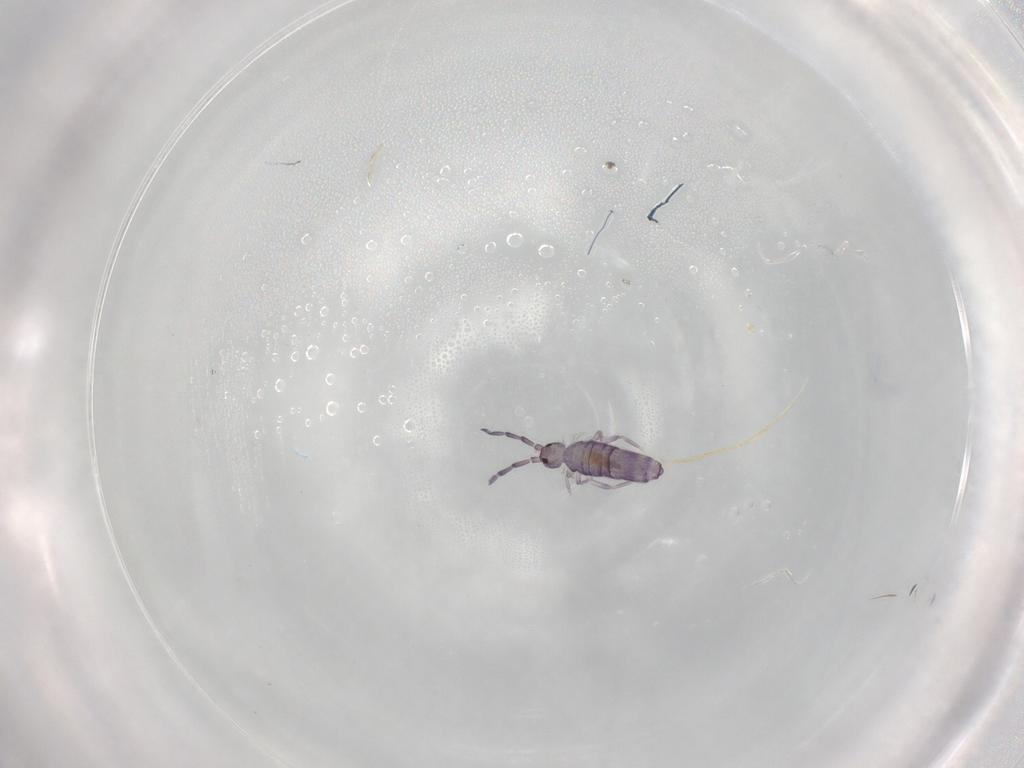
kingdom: Animalia
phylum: Arthropoda
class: Collembola
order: Entomobryomorpha
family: Entomobryidae
